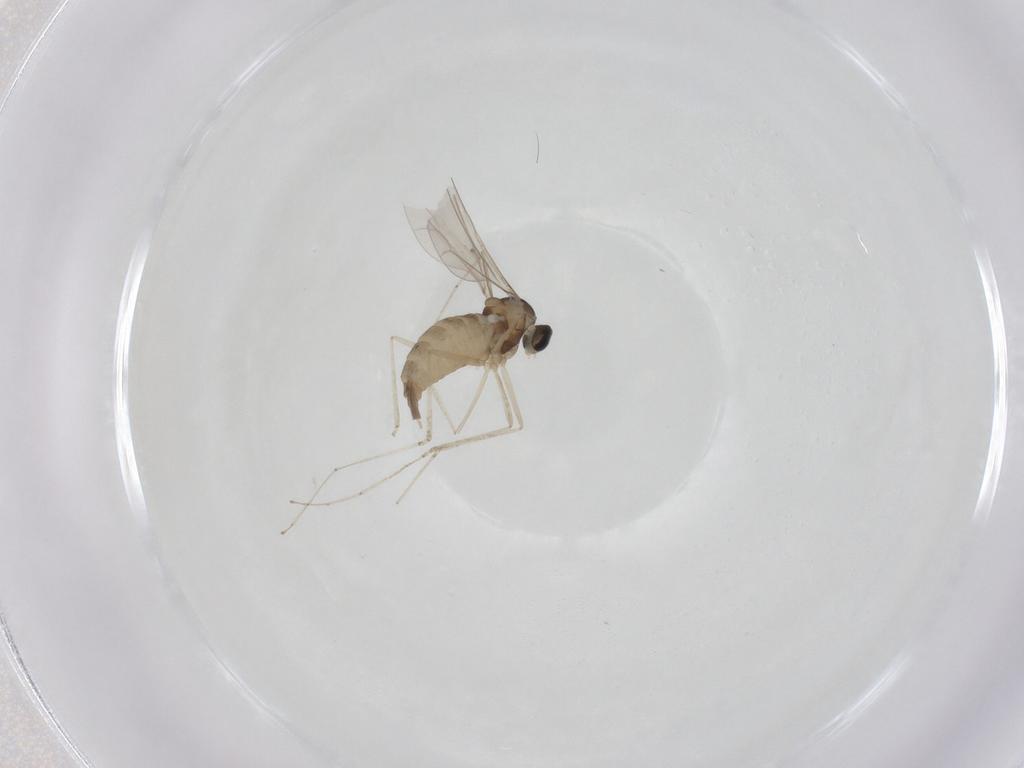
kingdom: Animalia
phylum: Arthropoda
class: Insecta
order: Diptera
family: Cecidomyiidae
